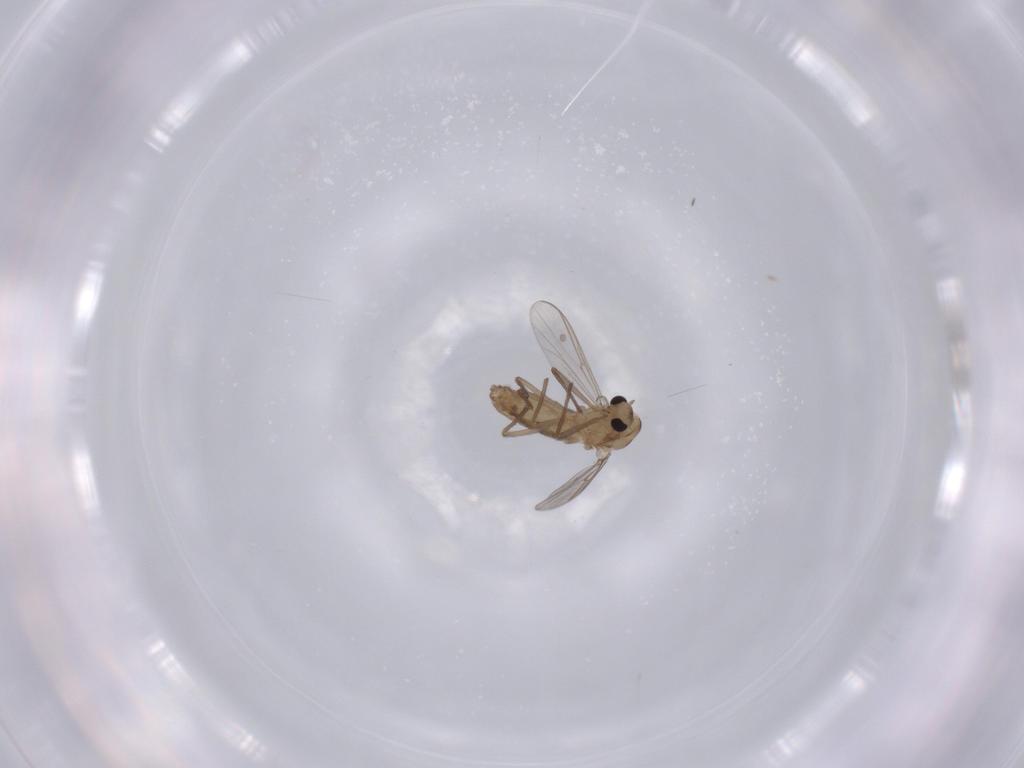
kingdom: Animalia
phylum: Arthropoda
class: Insecta
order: Diptera
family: Chironomidae
